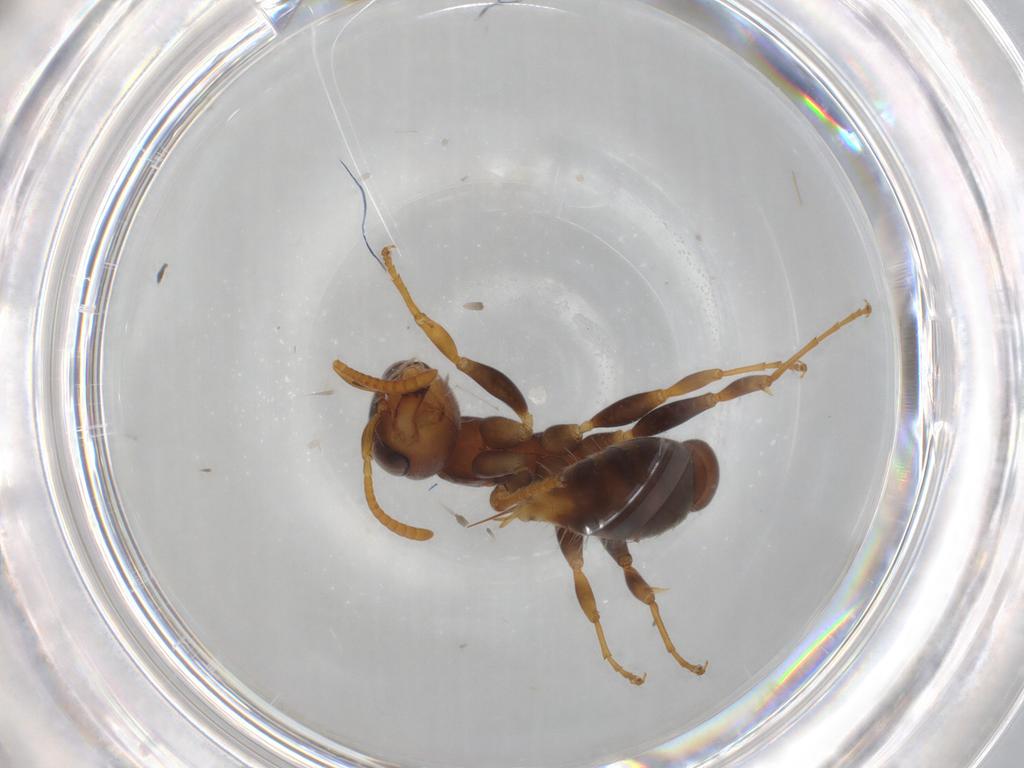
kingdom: Animalia
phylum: Arthropoda
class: Insecta
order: Hymenoptera
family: Formicidae
